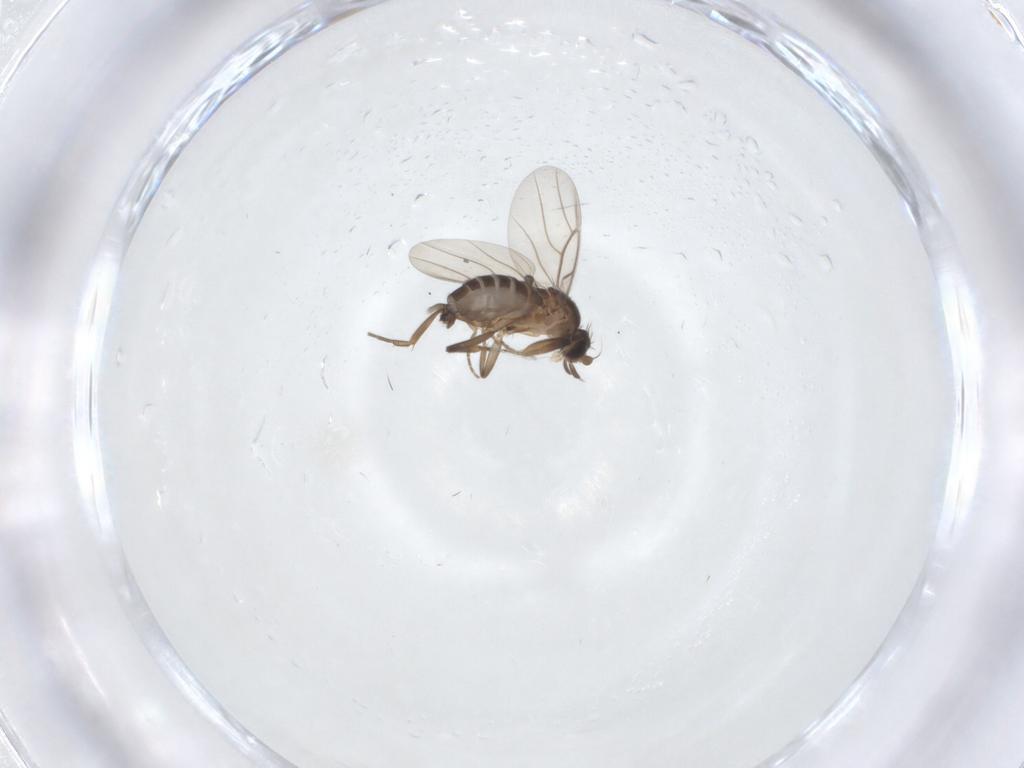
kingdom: Animalia
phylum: Arthropoda
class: Insecta
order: Diptera
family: Phoridae
